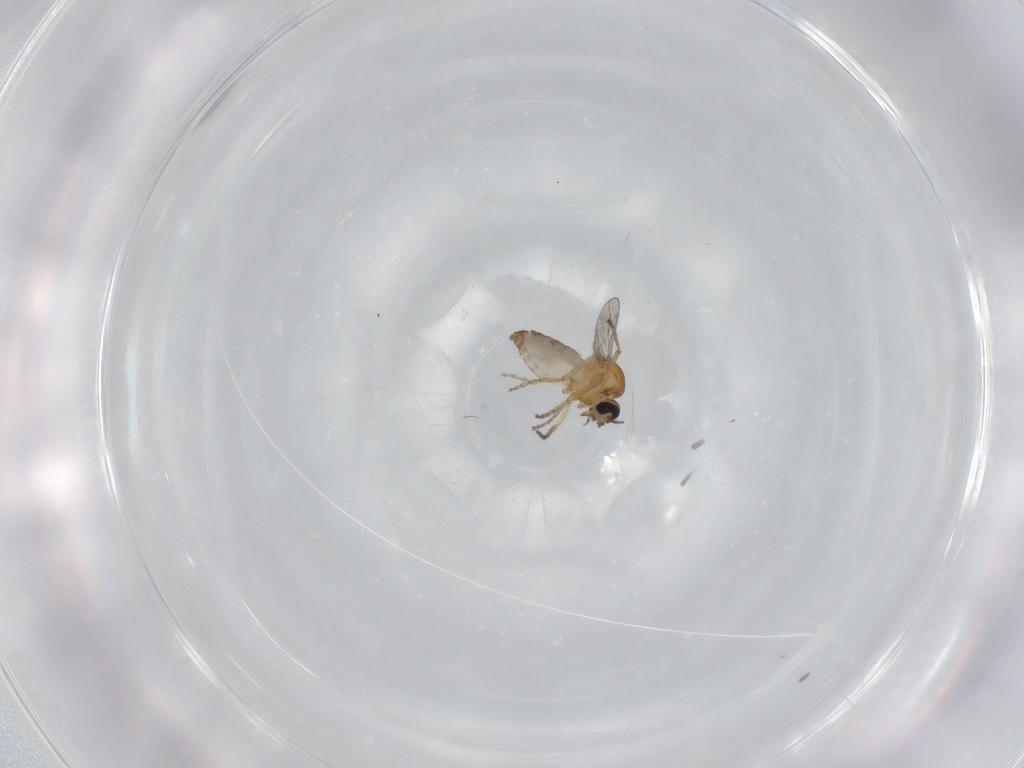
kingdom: Animalia
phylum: Arthropoda
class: Insecta
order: Diptera
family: Ceratopogonidae
